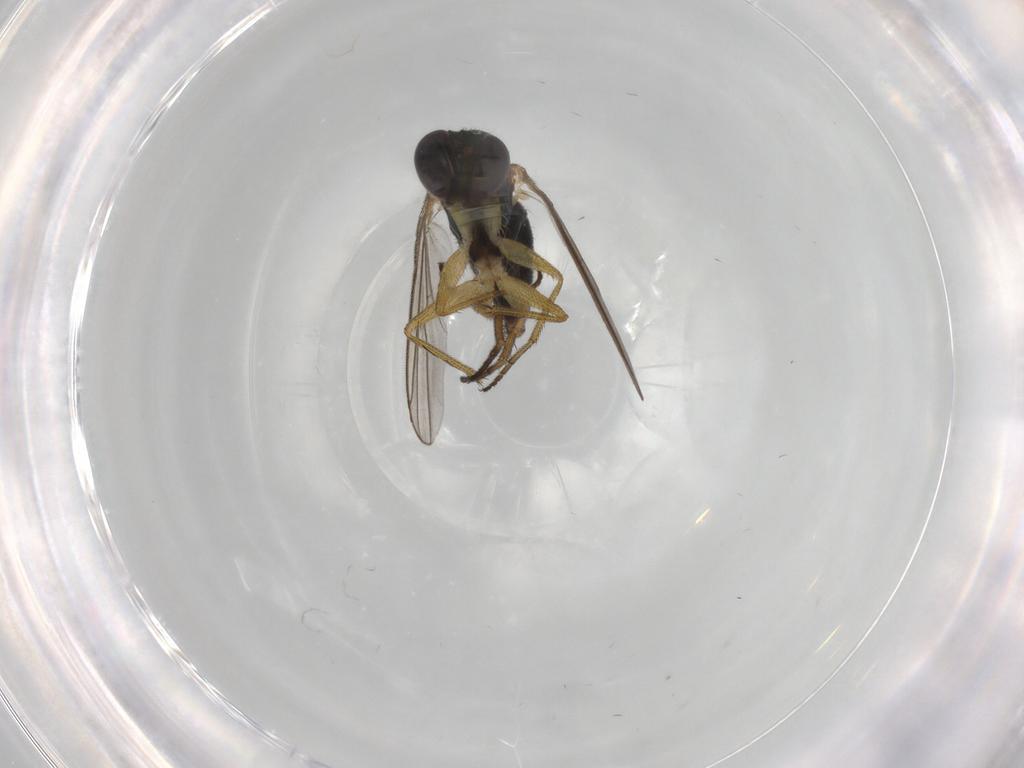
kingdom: Animalia
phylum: Arthropoda
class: Insecta
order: Diptera
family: Dolichopodidae
